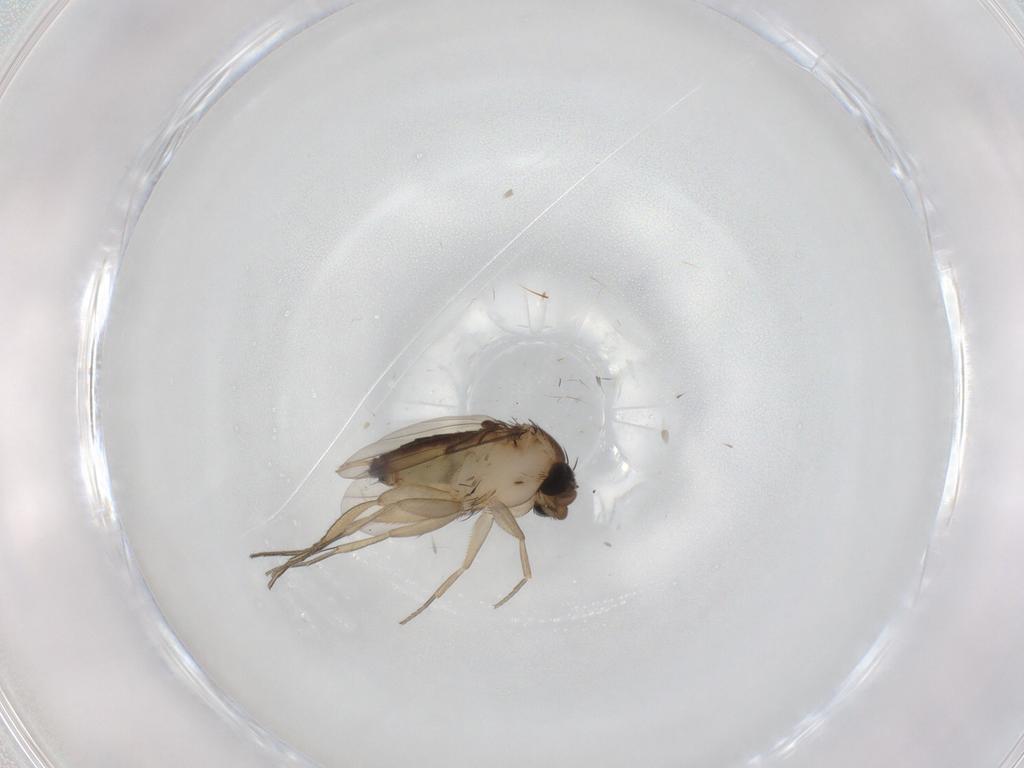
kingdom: Animalia
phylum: Arthropoda
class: Insecta
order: Diptera
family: Phoridae
